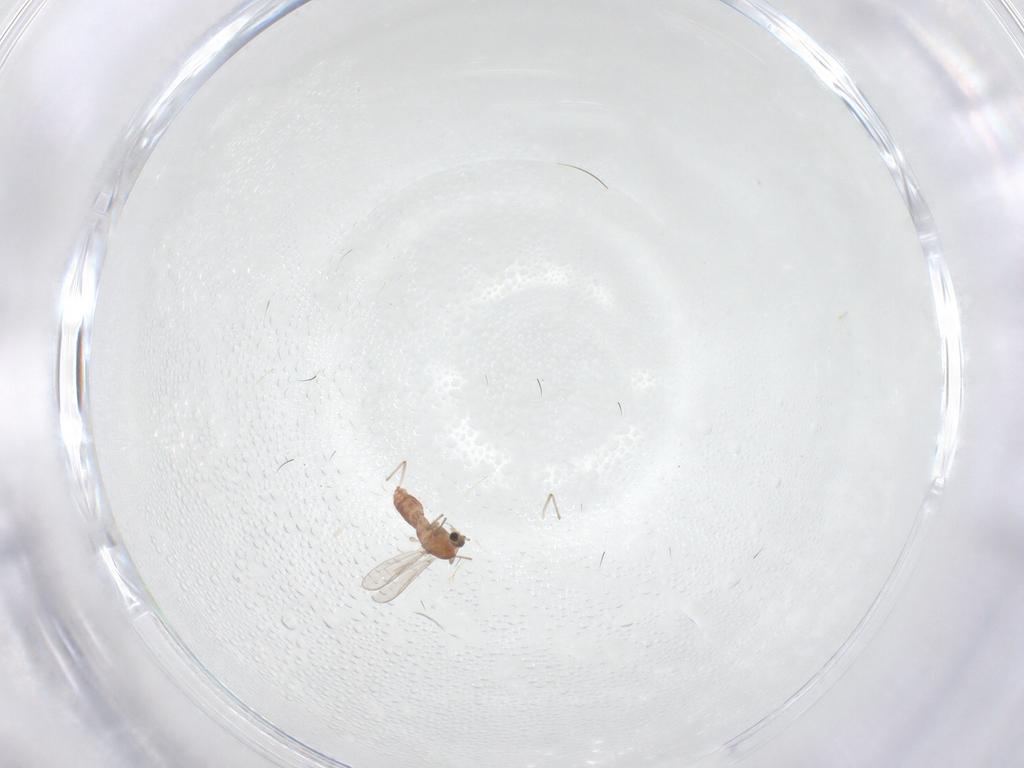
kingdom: Animalia
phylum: Arthropoda
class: Insecta
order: Diptera
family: Chironomidae
